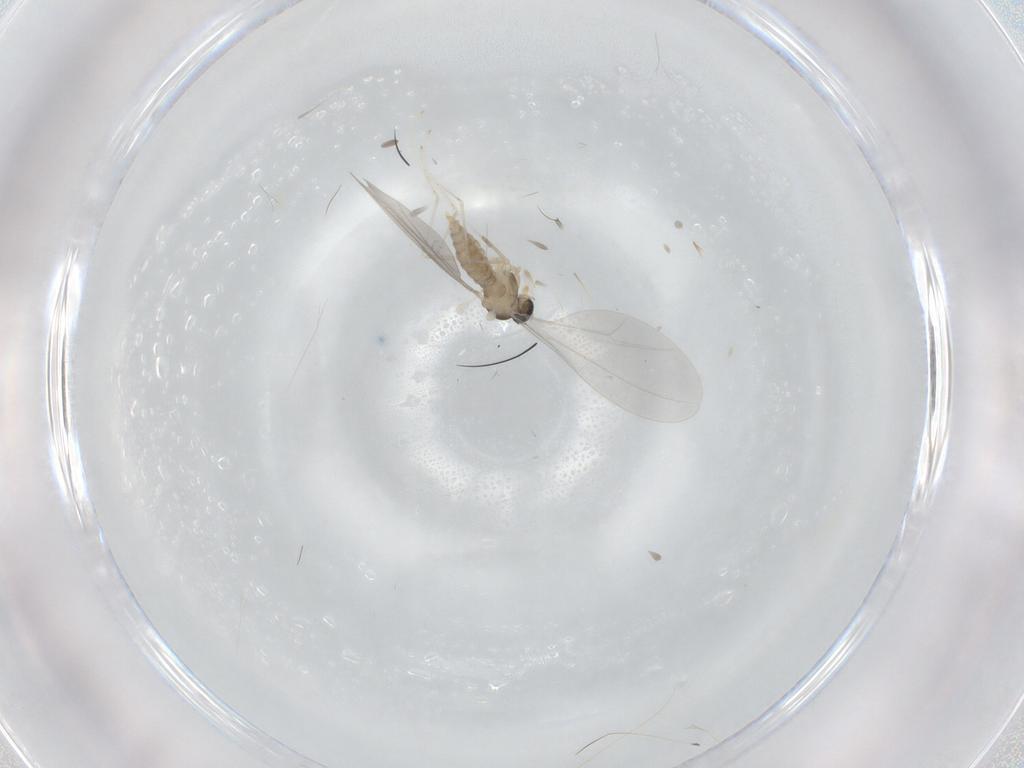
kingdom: Animalia
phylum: Arthropoda
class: Insecta
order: Diptera
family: Cecidomyiidae
